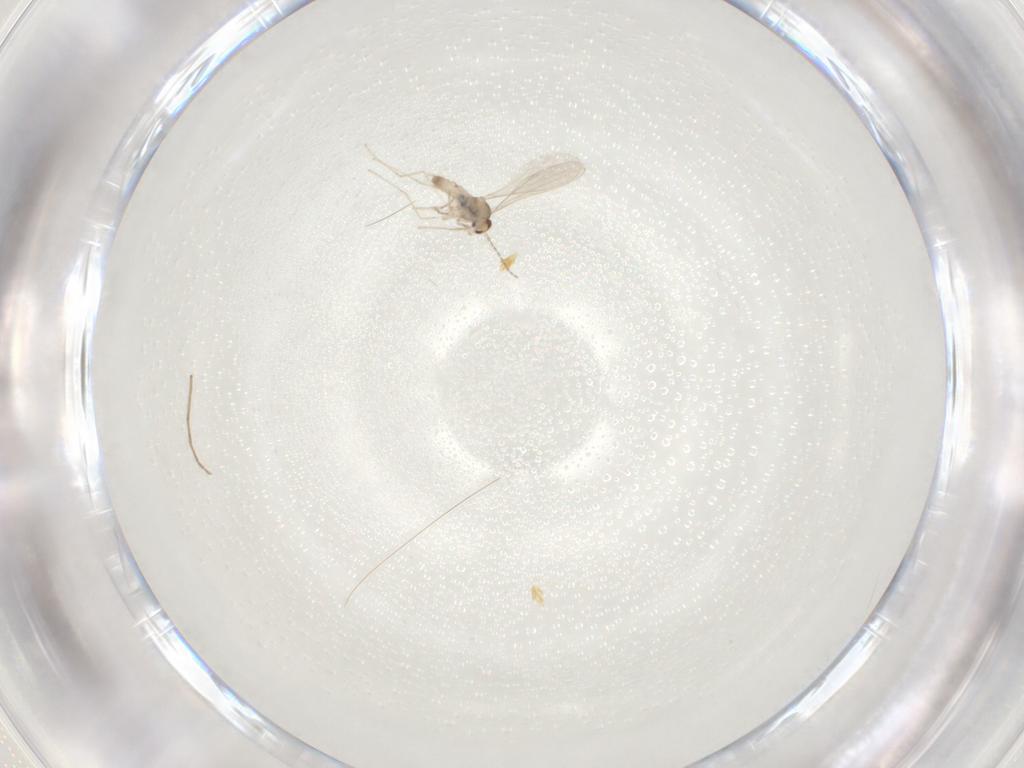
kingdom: Animalia
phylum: Arthropoda
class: Insecta
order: Diptera
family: Cecidomyiidae
